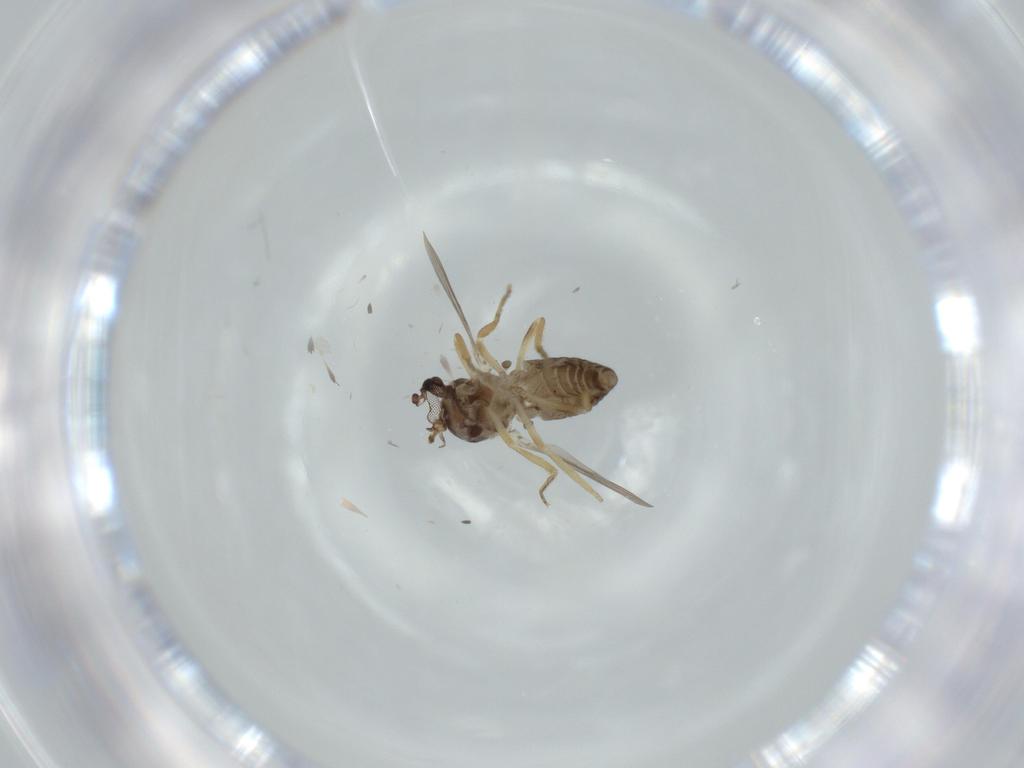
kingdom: Animalia
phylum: Arthropoda
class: Insecta
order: Diptera
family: Ceratopogonidae
